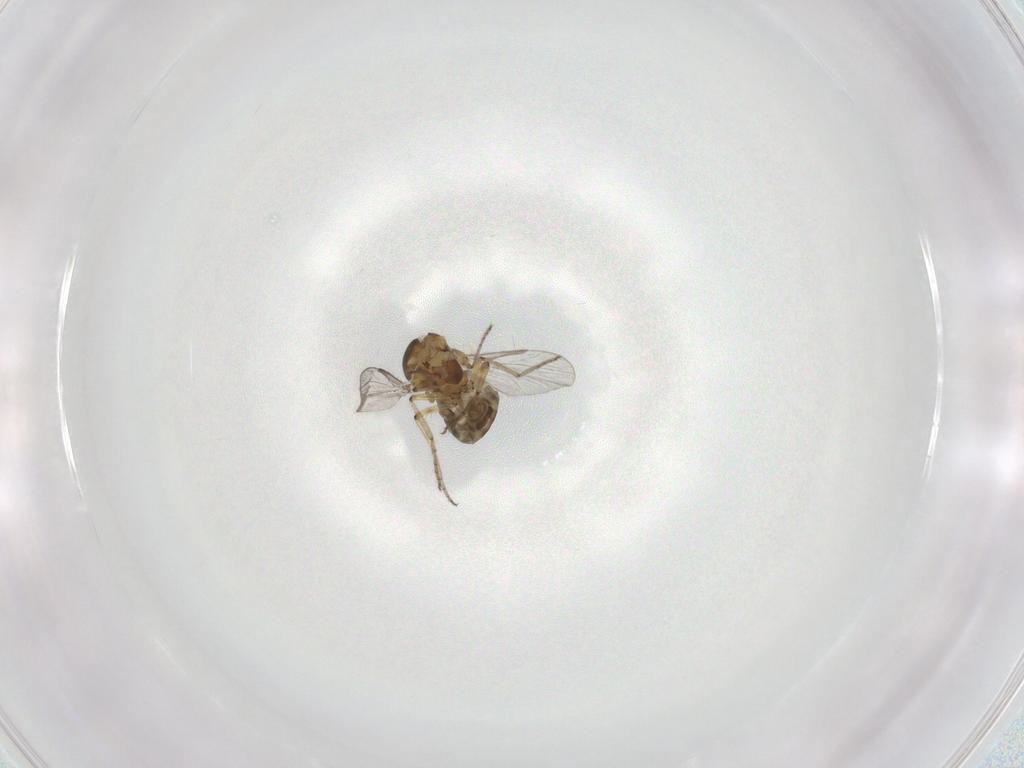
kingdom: Animalia
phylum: Arthropoda
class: Insecta
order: Diptera
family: Ceratopogonidae
